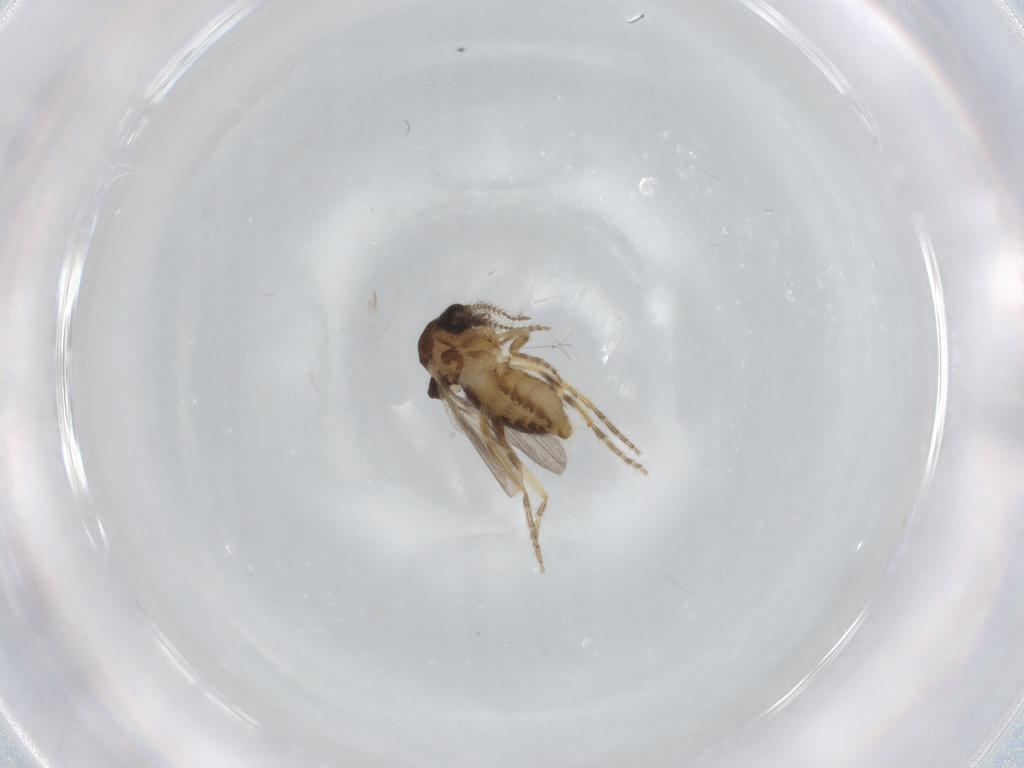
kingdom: Animalia
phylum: Arthropoda
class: Insecta
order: Diptera
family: Ceratopogonidae
